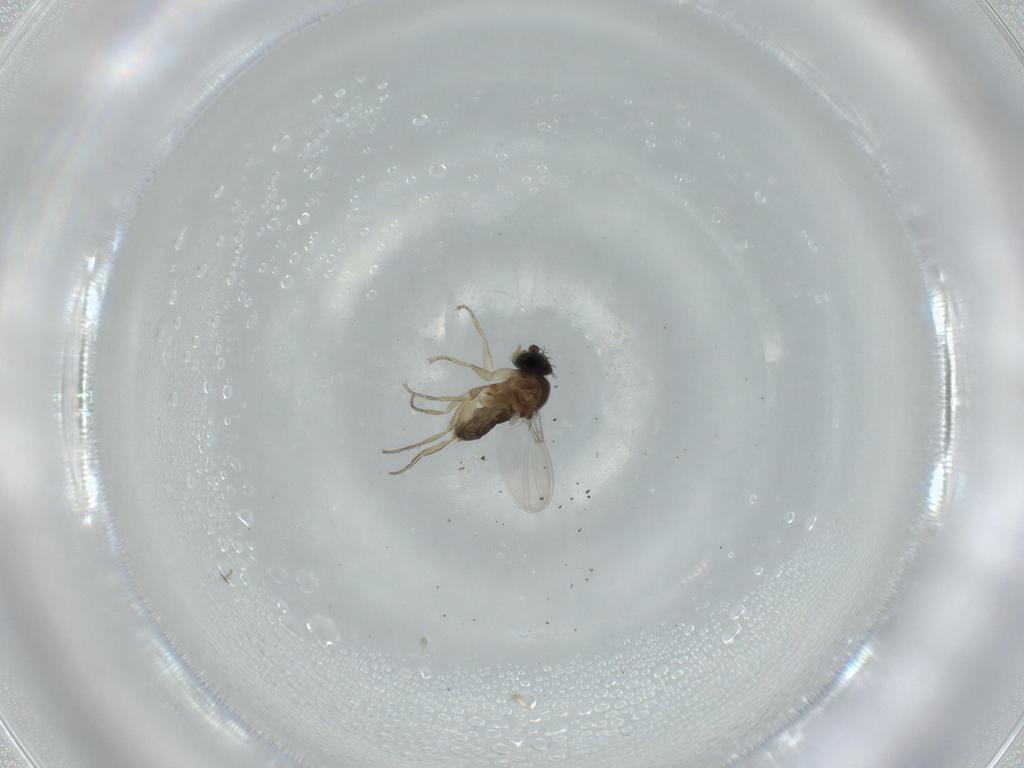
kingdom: Animalia
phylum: Arthropoda
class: Insecta
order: Diptera
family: Phoridae
